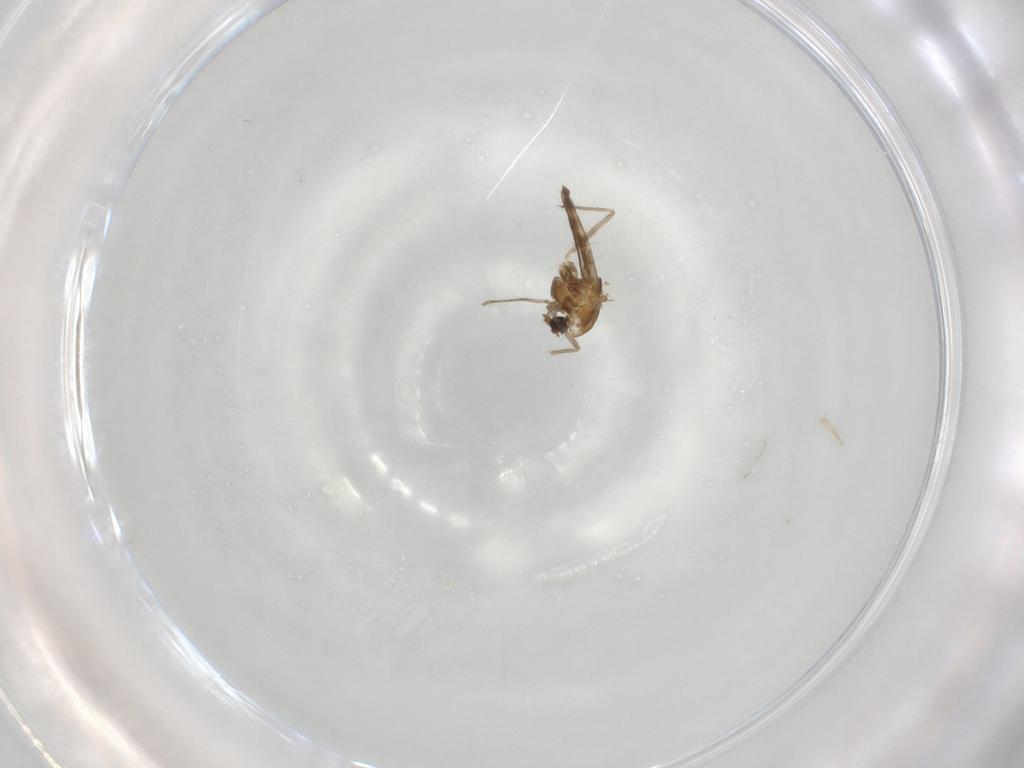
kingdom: Animalia
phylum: Arthropoda
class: Insecta
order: Diptera
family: Chironomidae
